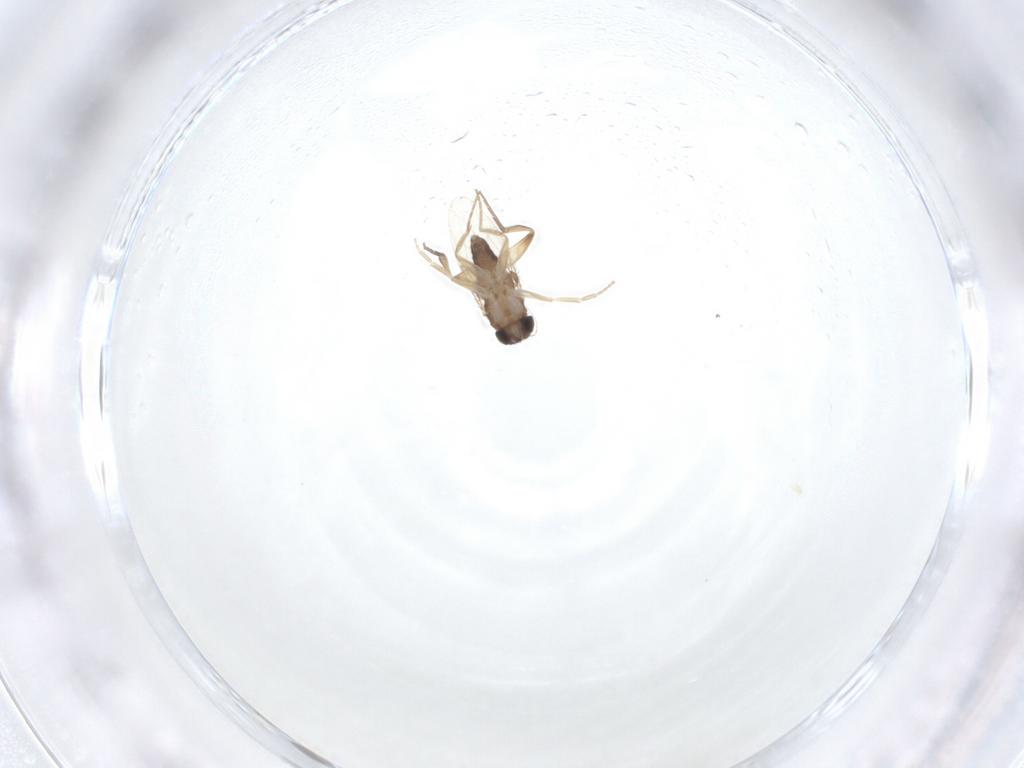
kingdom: Animalia
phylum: Arthropoda
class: Insecta
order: Diptera
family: Phoridae
